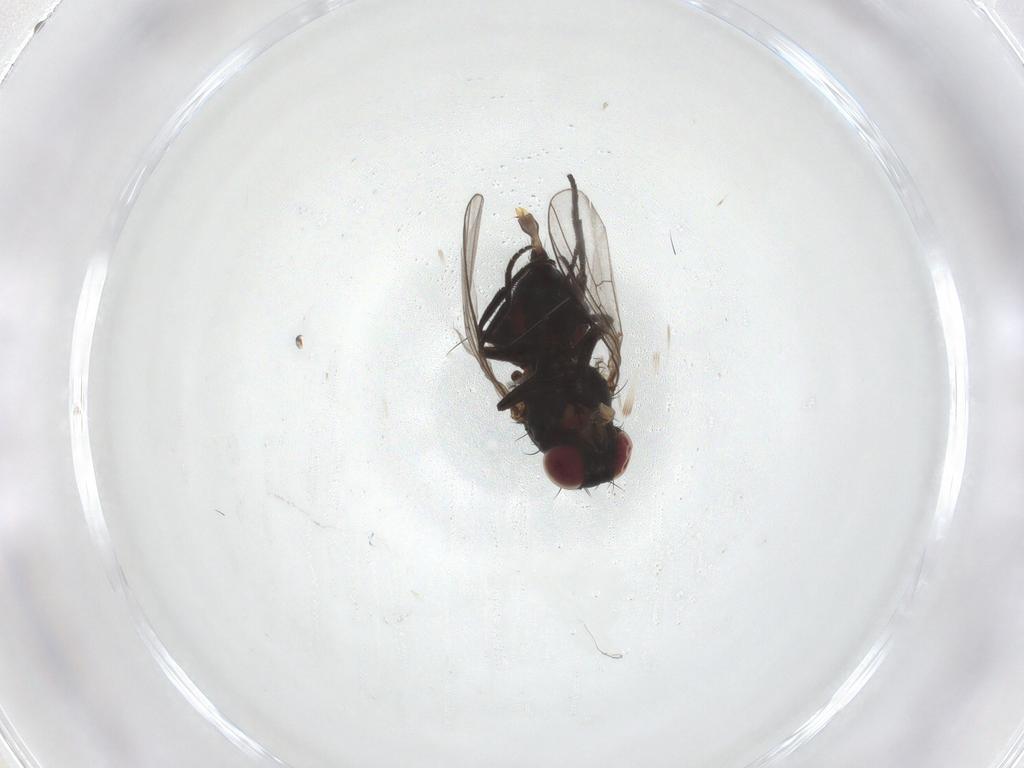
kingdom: Animalia
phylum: Arthropoda
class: Insecta
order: Diptera
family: Agromyzidae
